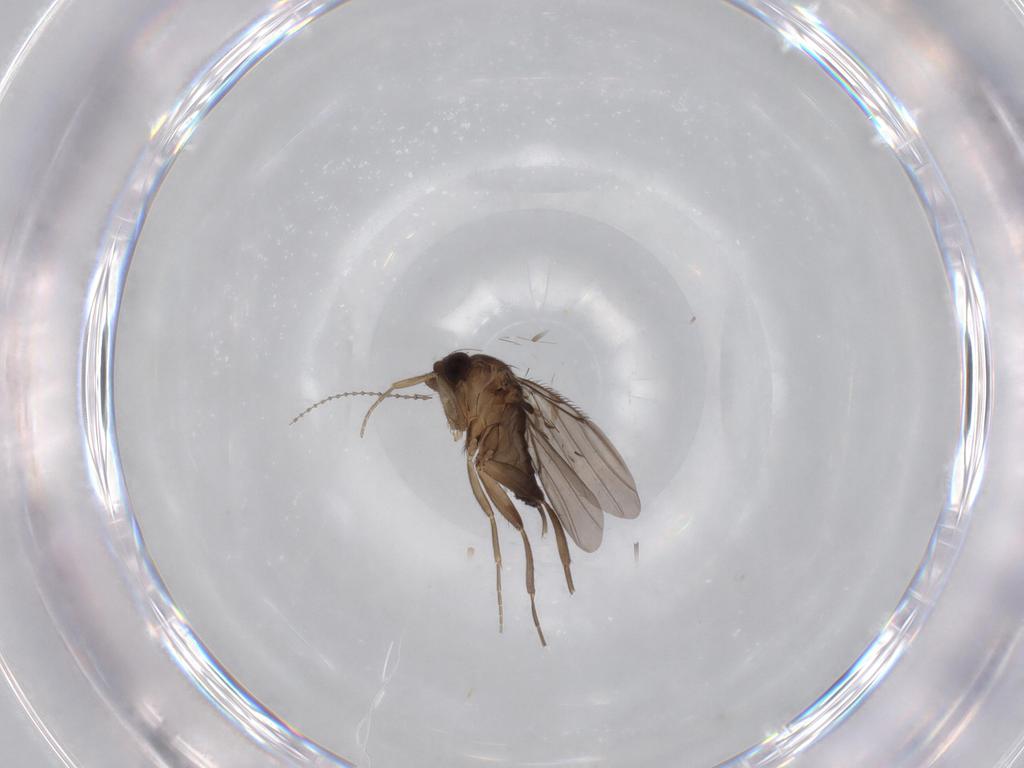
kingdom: Animalia
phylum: Arthropoda
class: Insecta
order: Diptera
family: Phoridae
